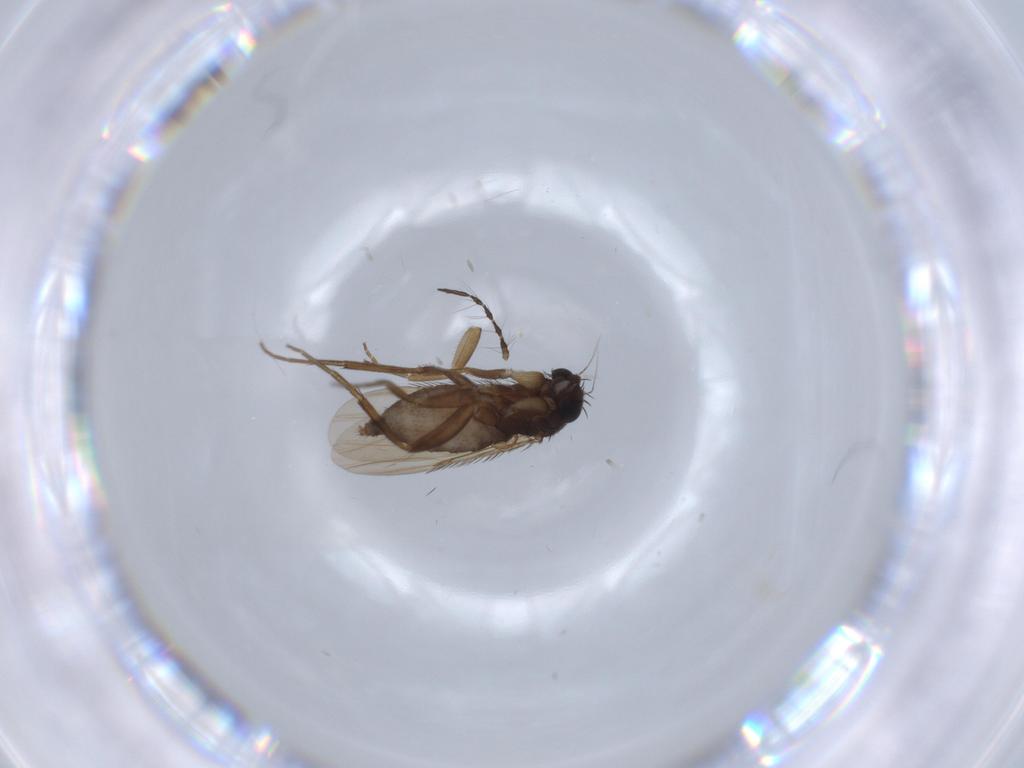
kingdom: Animalia
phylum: Arthropoda
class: Insecta
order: Diptera
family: Phoridae
